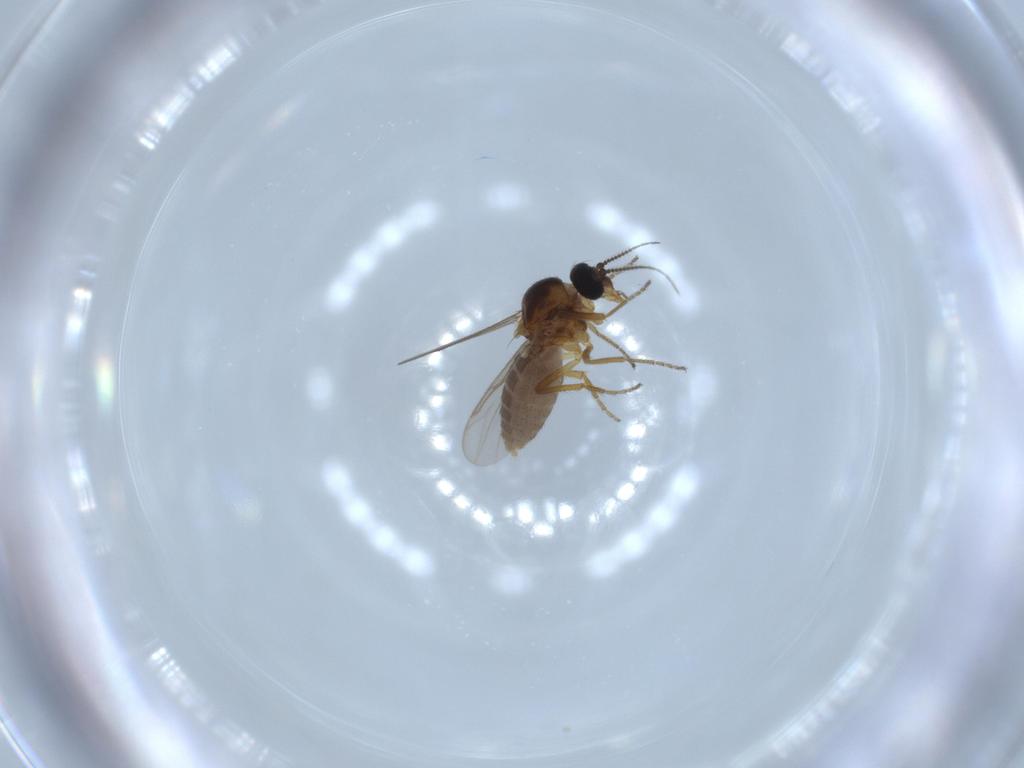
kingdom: Animalia
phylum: Arthropoda
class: Insecta
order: Diptera
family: Ceratopogonidae
